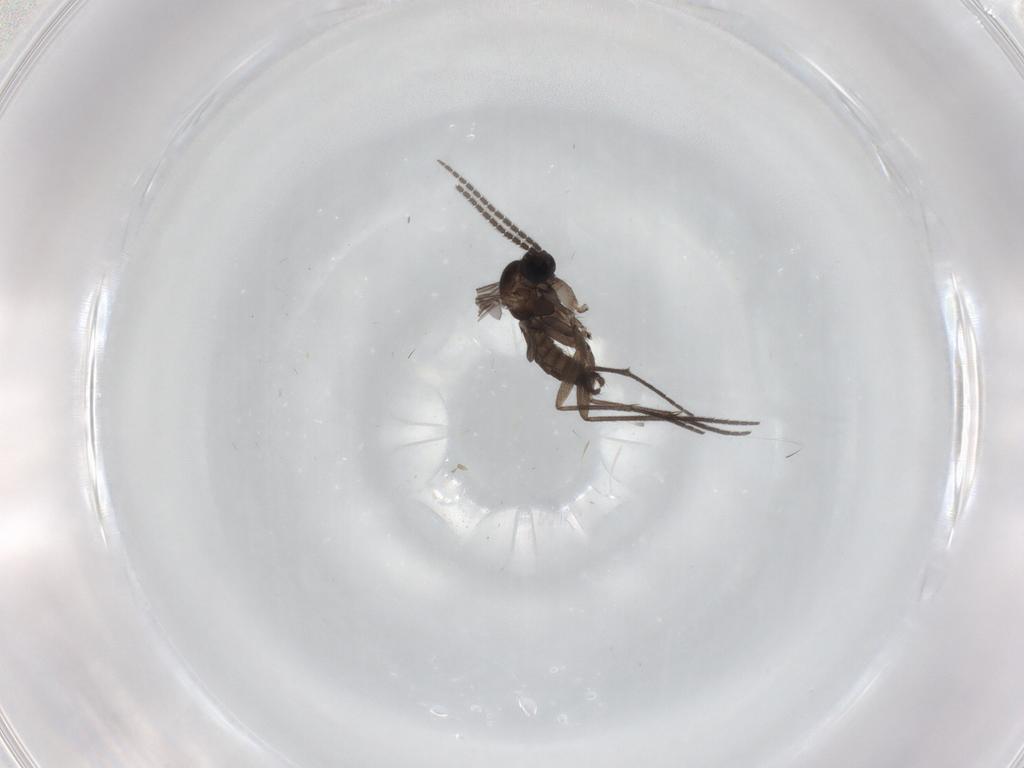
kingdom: Animalia
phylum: Arthropoda
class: Insecta
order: Diptera
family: Sciaridae
